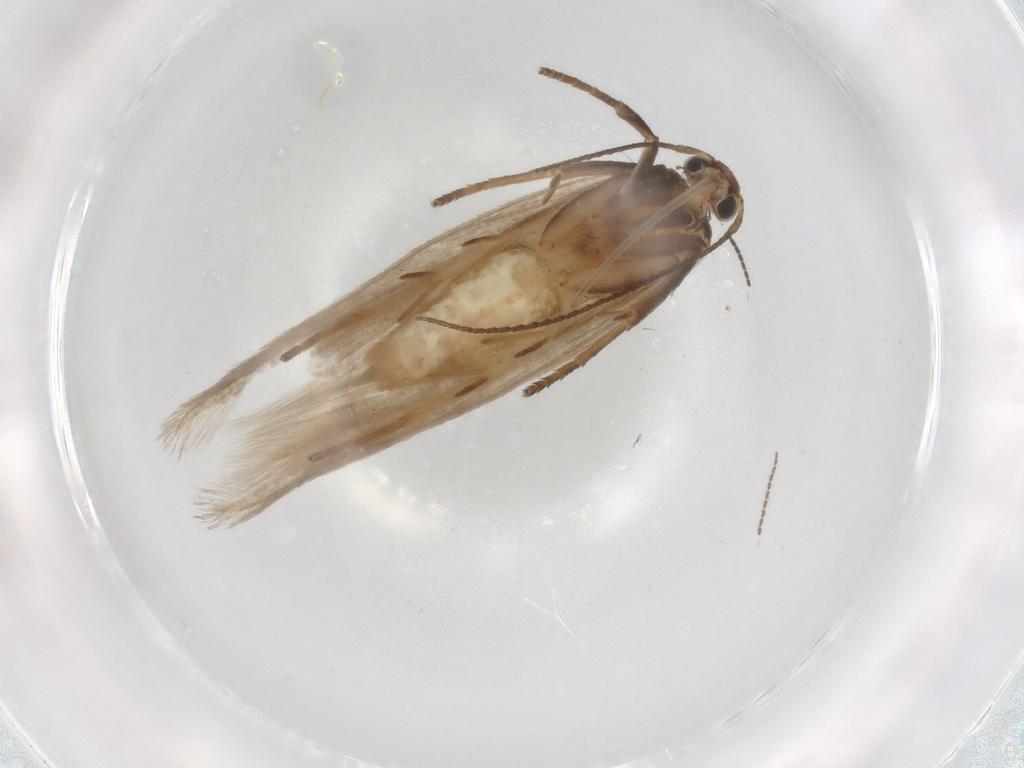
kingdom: Animalia
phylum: Arthropoda
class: Insecta
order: Lepidoptera
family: Gelechiidae
